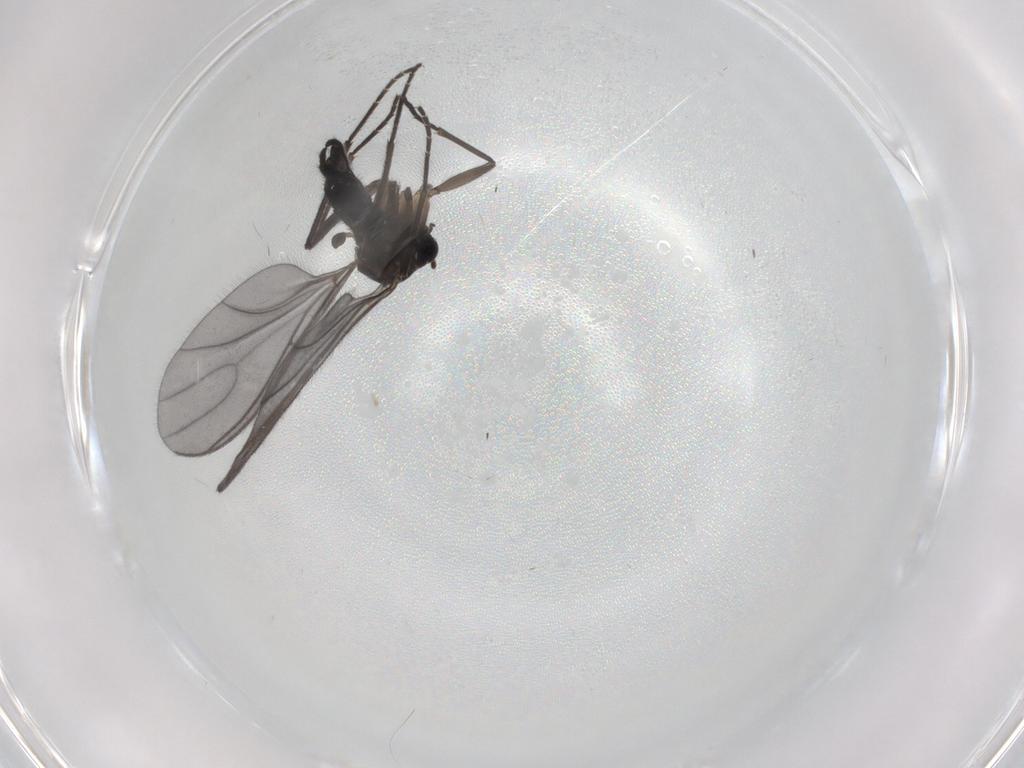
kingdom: Animalia
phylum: Arthropoda
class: Insecta
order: Diptera
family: Sciaridae
